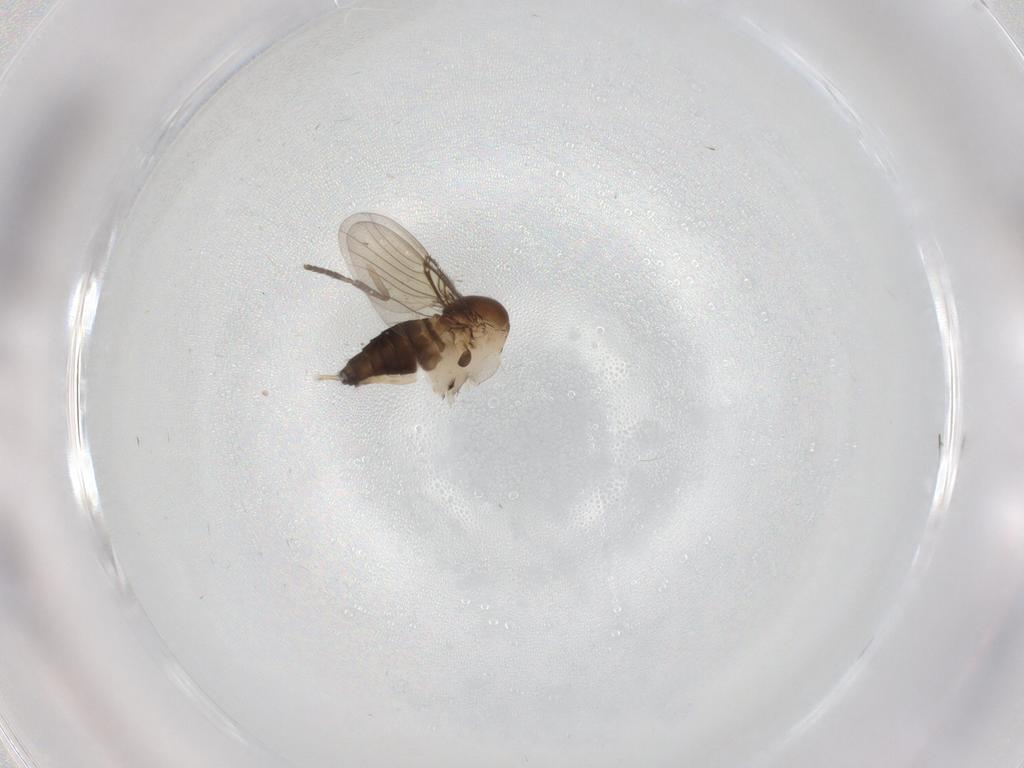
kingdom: Animalia
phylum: Arthropoda
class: Insecta
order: Diptera
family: Phoridae
